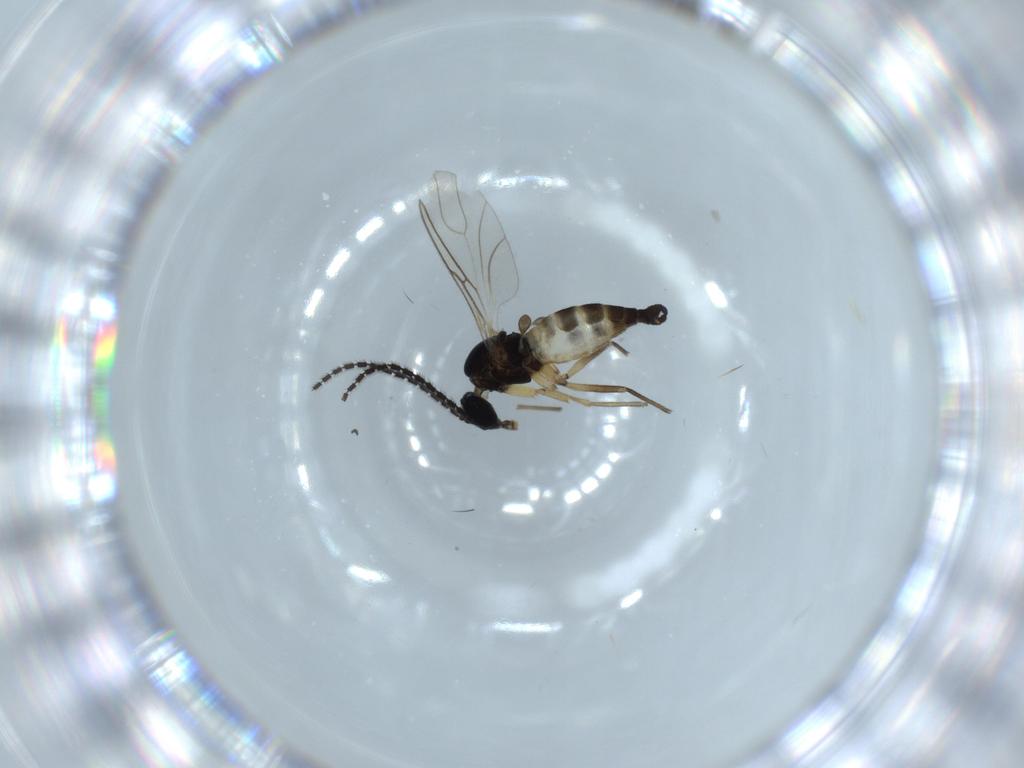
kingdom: Animalia
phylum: Arthropoda
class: Insecta
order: Diptera
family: Sciaridae
